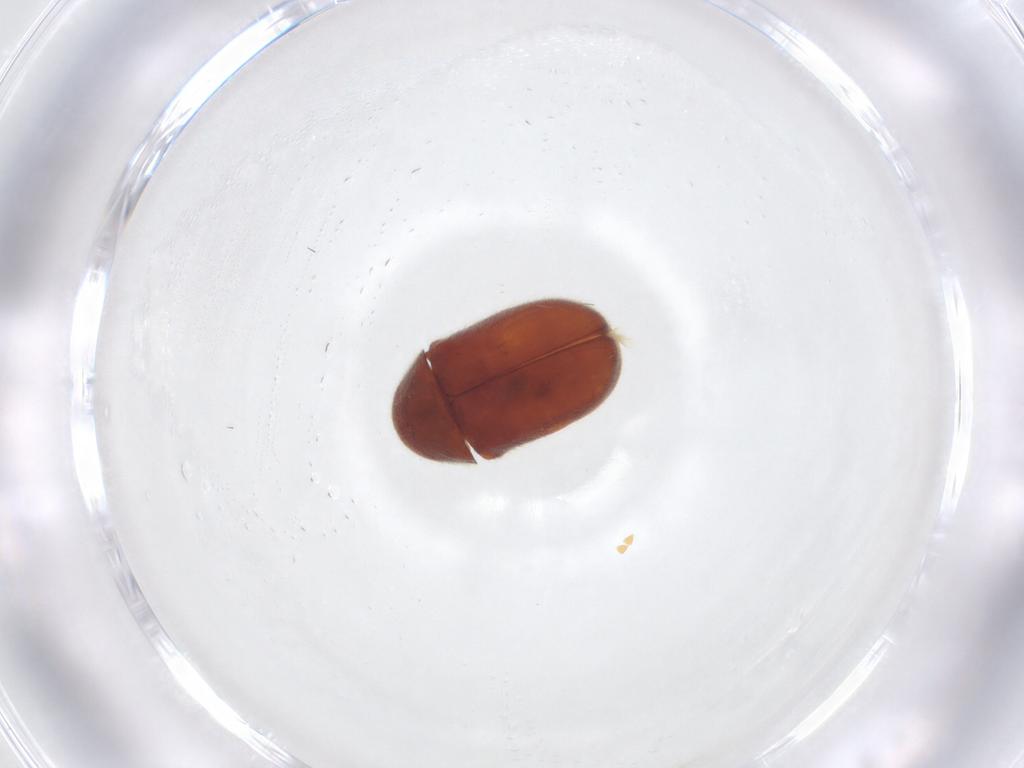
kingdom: Animalia
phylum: Arthropoda
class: Insecta
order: Coleoptera
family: Ptinidae
